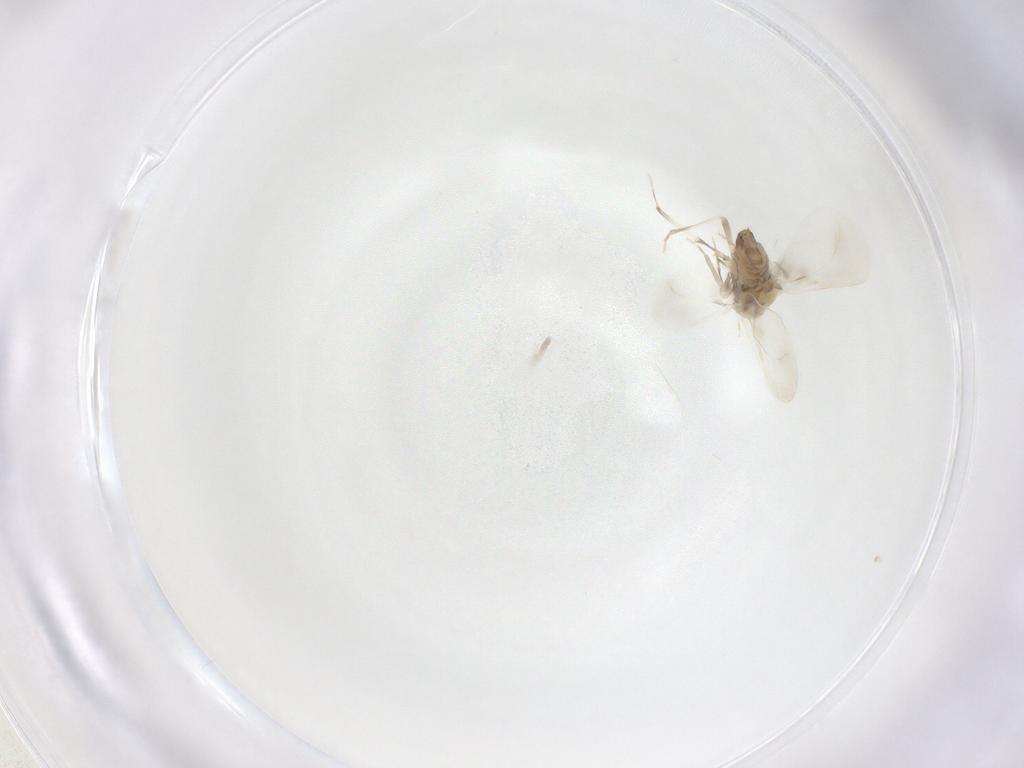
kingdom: Animalia
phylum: Arthropoda
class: Insecta
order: Hemiptera
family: Aleyrodidae
